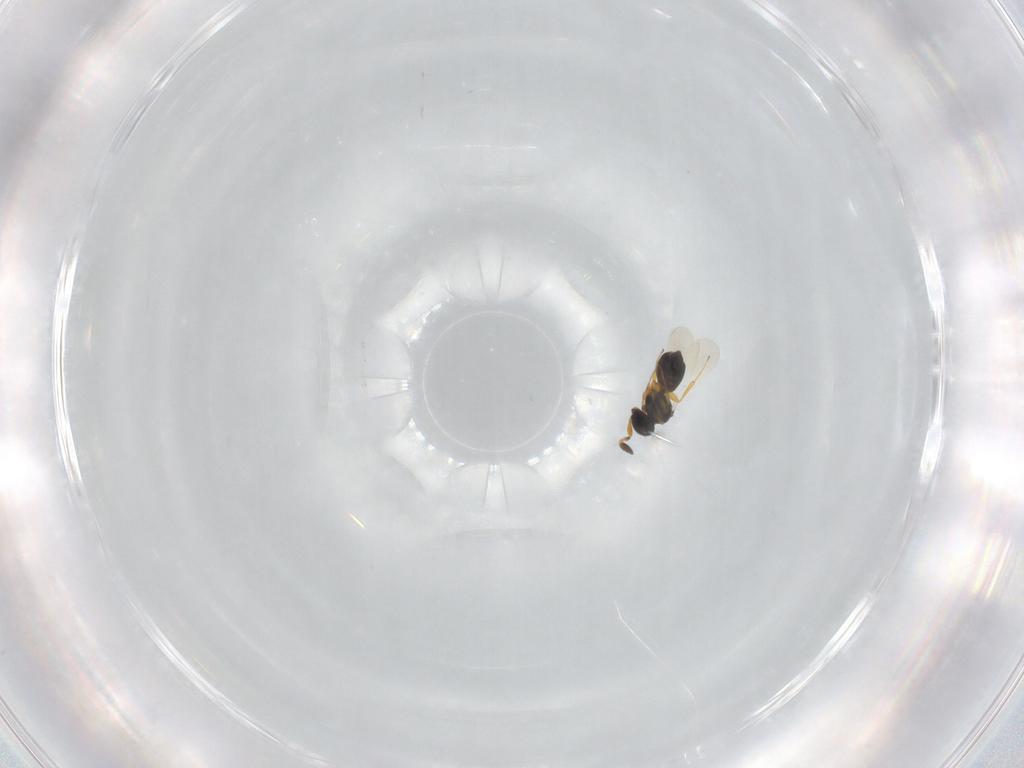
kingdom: Animalia
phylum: Arthropoda
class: Insecta
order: Hymenoptera
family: Platygastridae
